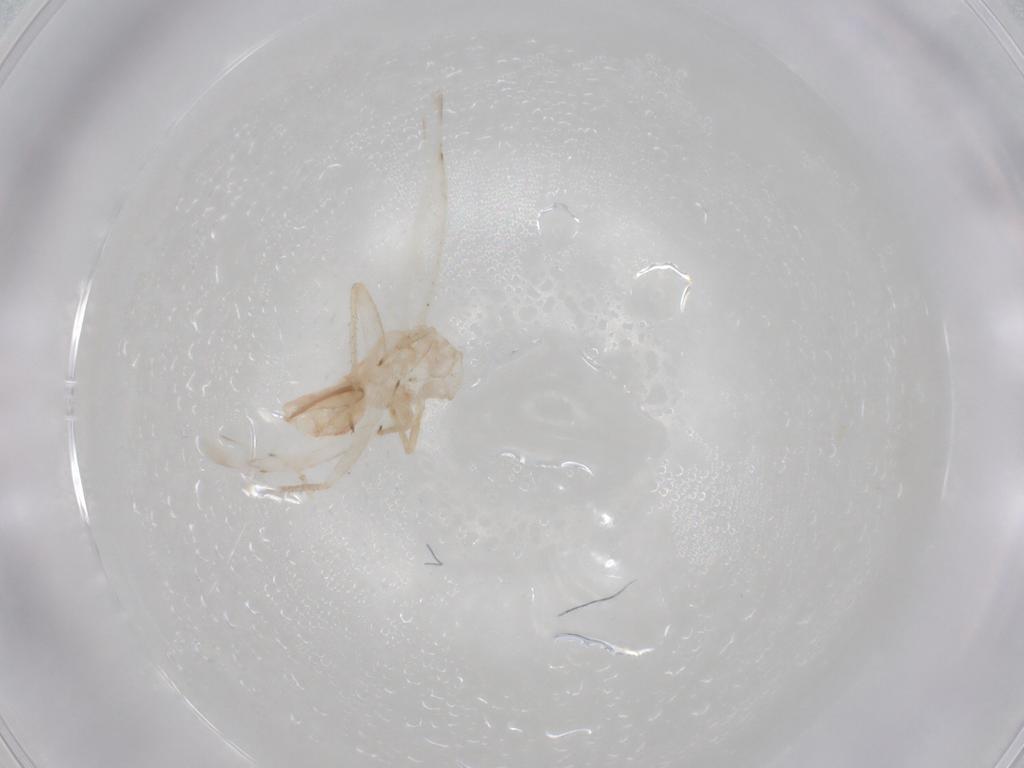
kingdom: Animalia
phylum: Arthropoda
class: Insecta
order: Hemiptera
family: Miridae
